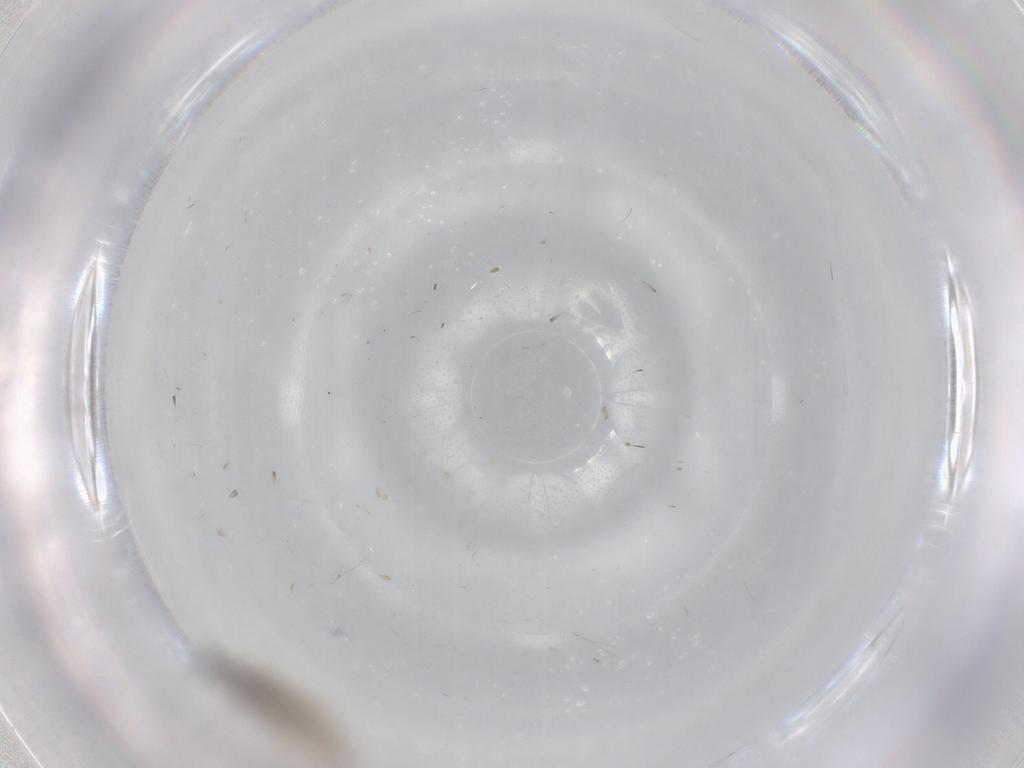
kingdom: Animalia
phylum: Arthropoda
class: Insecta
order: Diptera
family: Cecidomyiidae
